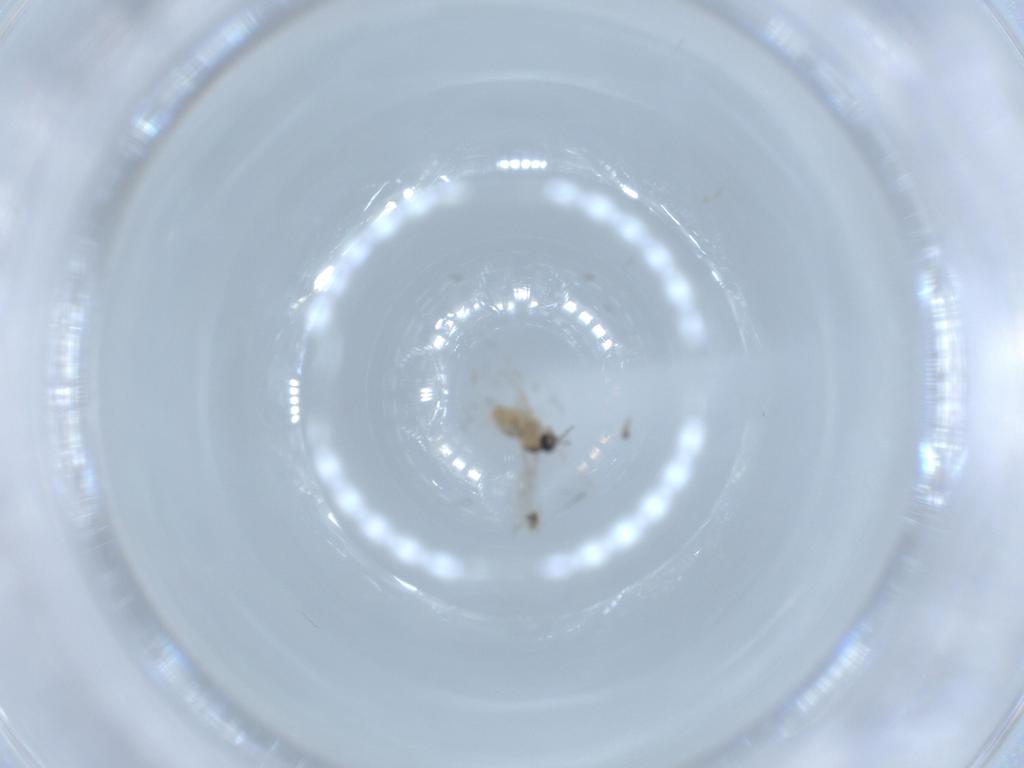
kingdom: Animalia
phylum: Arthropoda
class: Insecta
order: Diptera
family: Cecidomyiidae
